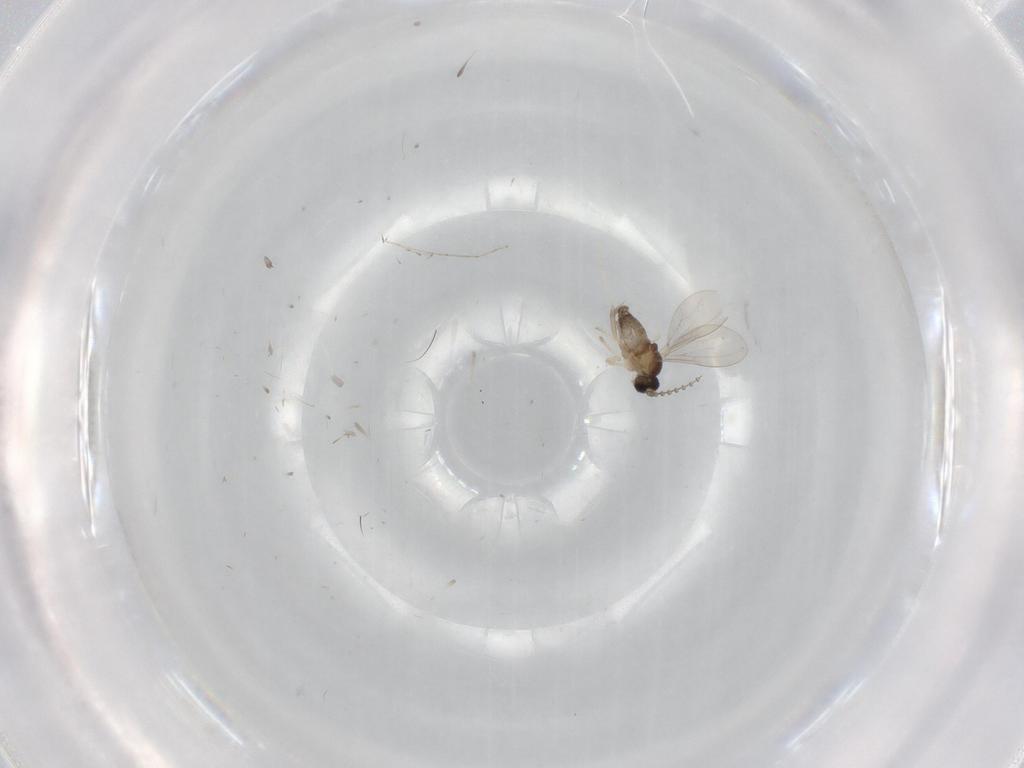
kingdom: Animalia
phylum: Arthropoda
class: Insecta
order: Diptera
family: Cecidomyiidae
